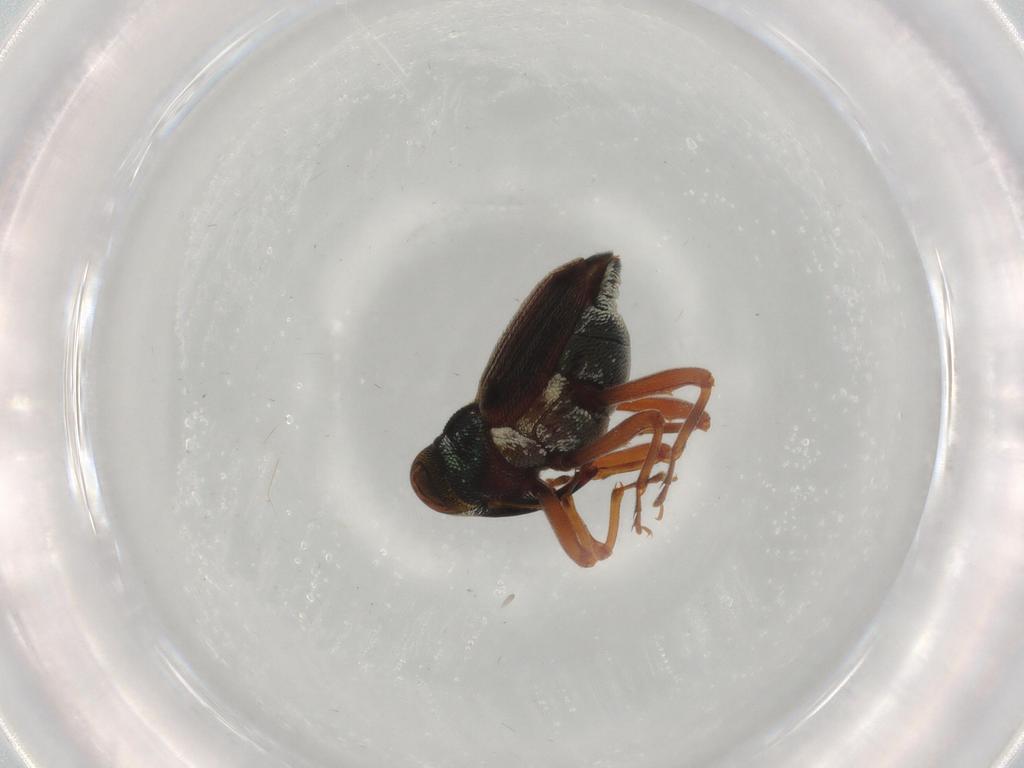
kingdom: Animalia
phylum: Arthropoda
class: Insecta
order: Coleoptera
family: Curculionidae
